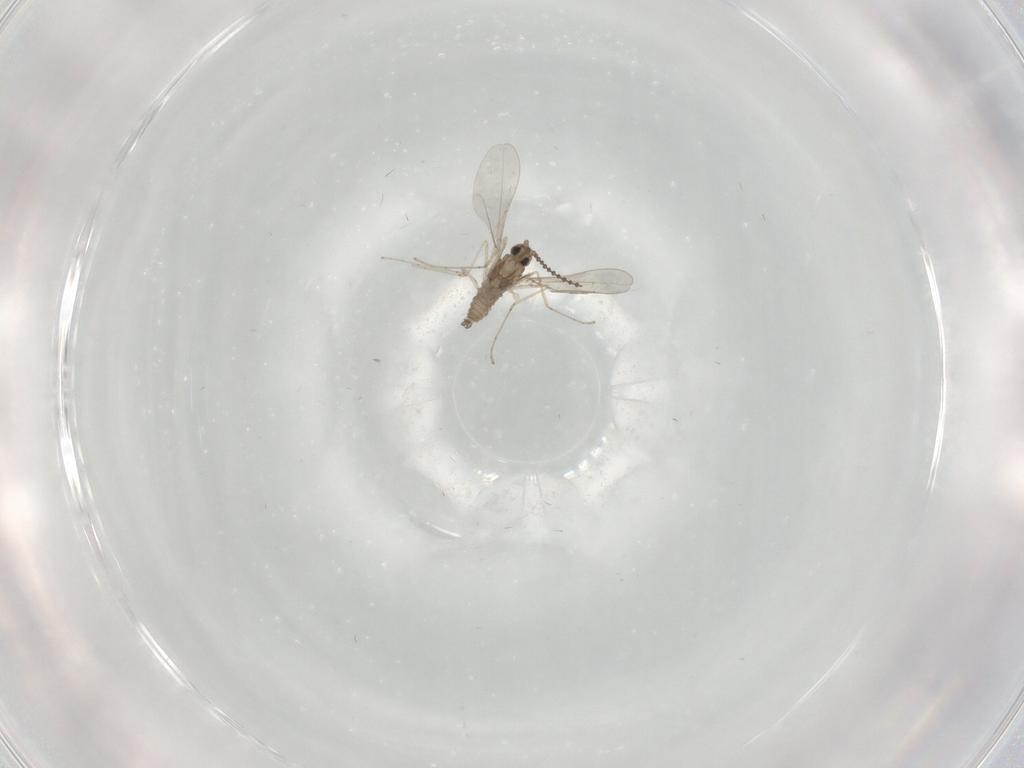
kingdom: Animalia
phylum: Arthropoda
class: Insecta
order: Diptera
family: Cecidomyiidae
